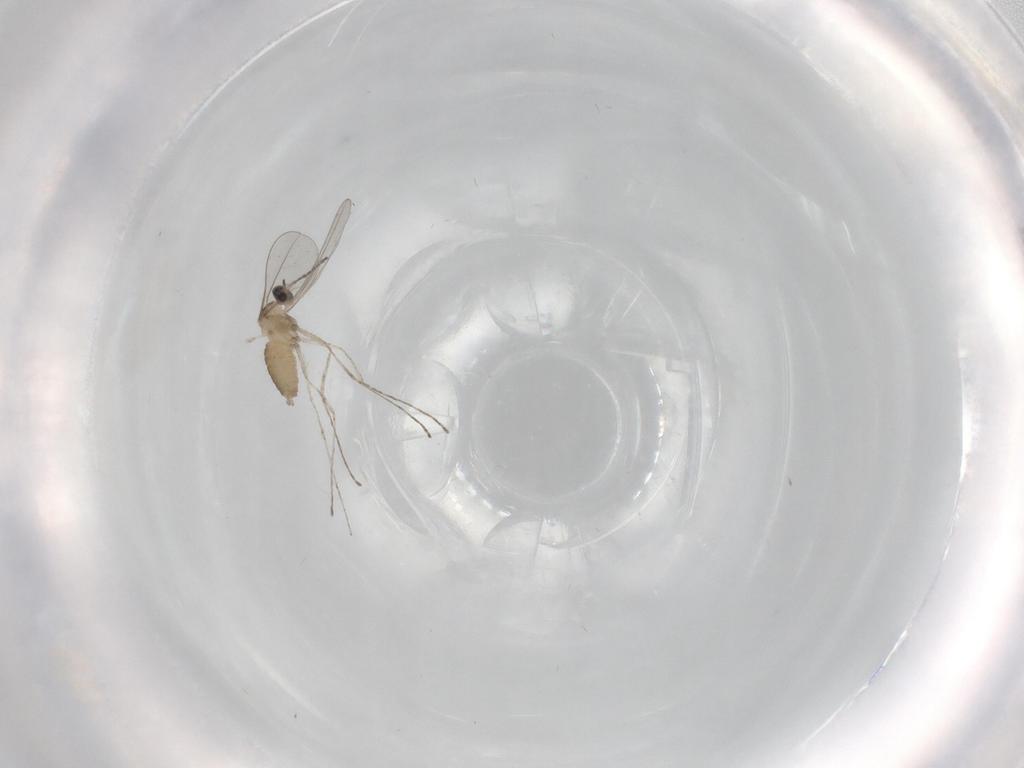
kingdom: Animalia
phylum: Arthropoda
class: Insecta
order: Diptera
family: Cecidomyiidae
